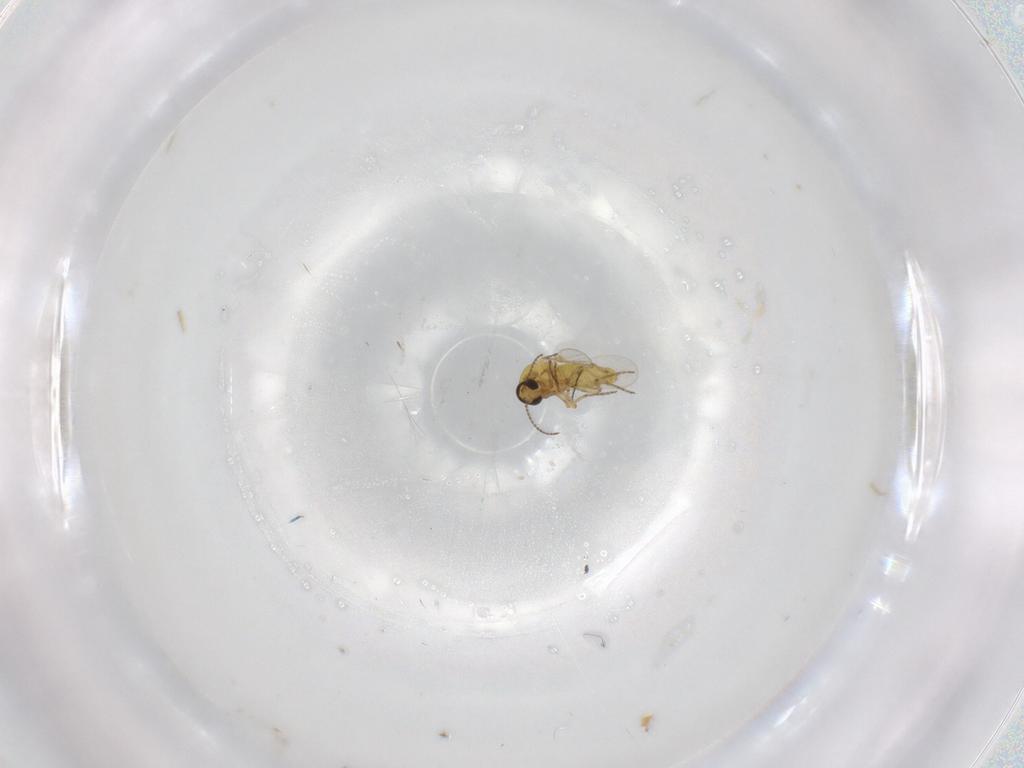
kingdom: Animalia
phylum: Arthropoda
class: Insecta
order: Diptera
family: Ceratopogonidae
